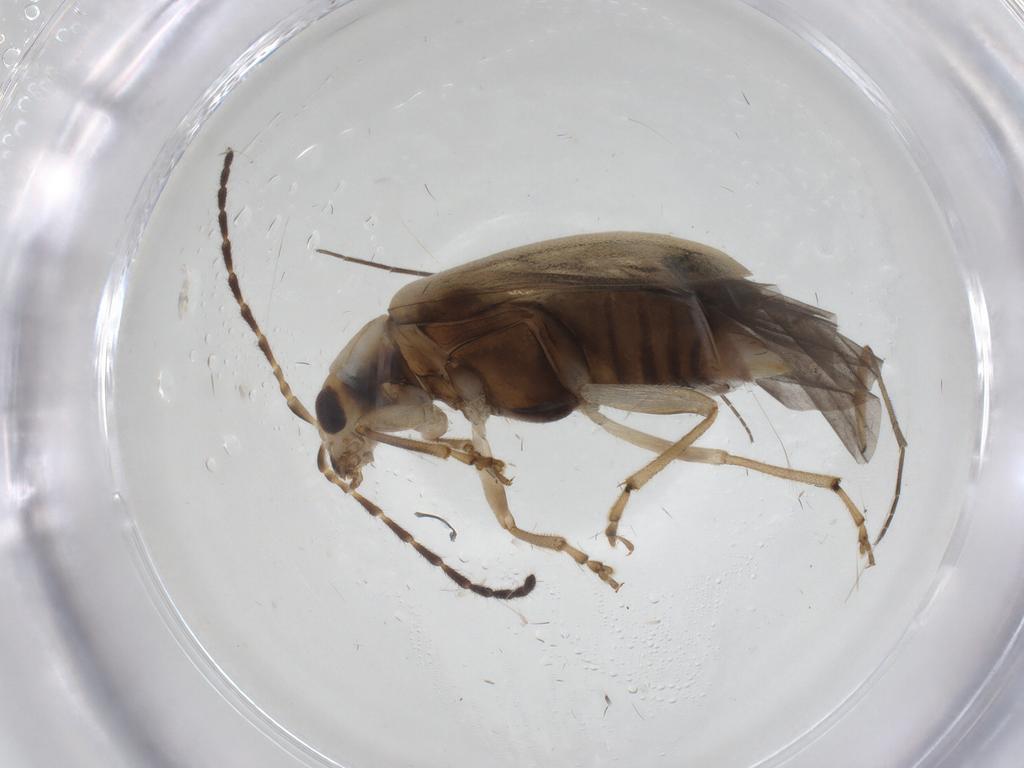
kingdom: Animalia
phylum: Arthropoda
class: Insecta
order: Coleoptera
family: Chrysomelidae
